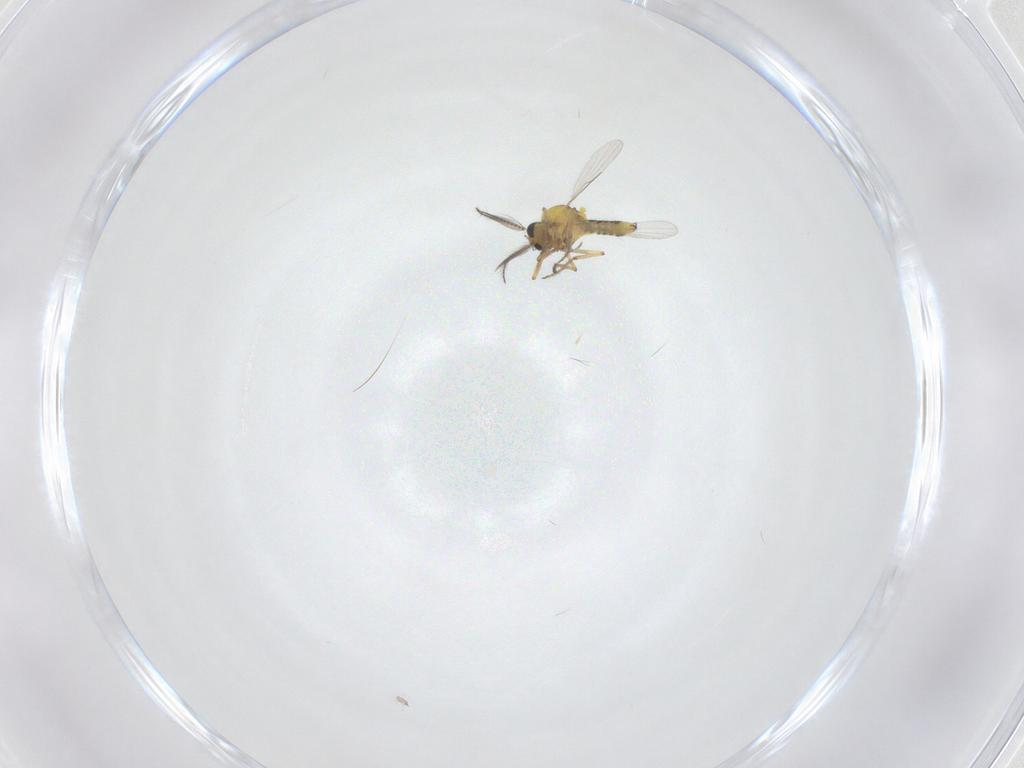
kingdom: Animalia
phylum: Arthropoda
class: Insecta
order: Diptera
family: Ceratopogonidae
